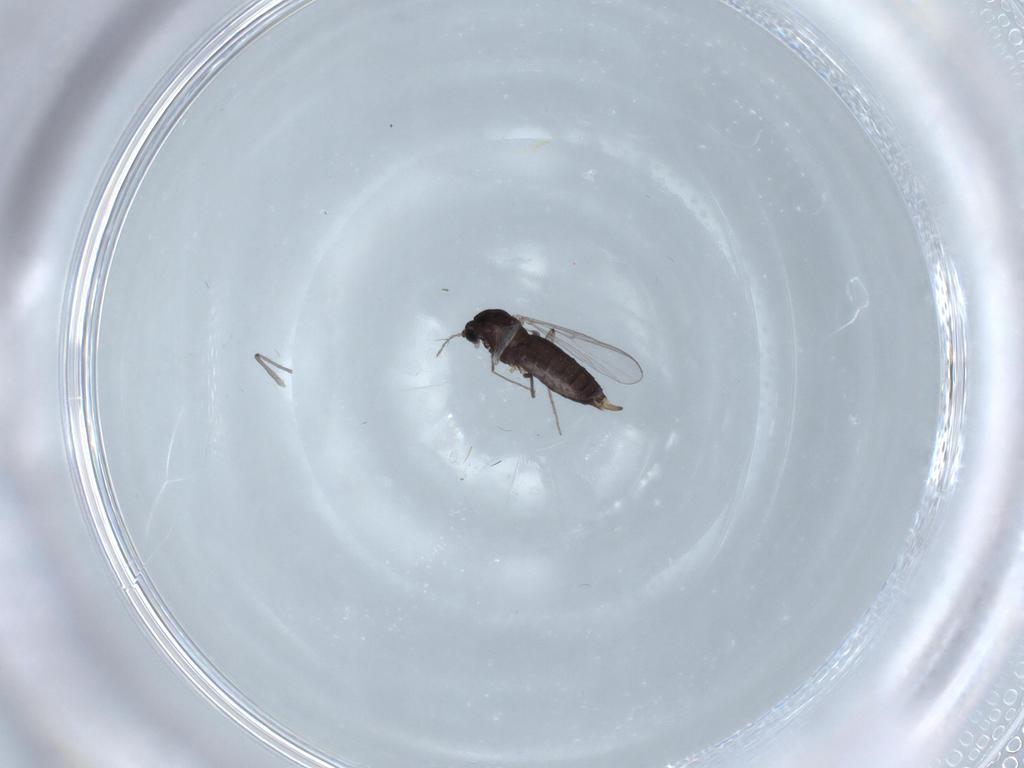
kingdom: Animalia
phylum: Arthropoda
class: Insecta
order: Diptera
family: Chironomidae
